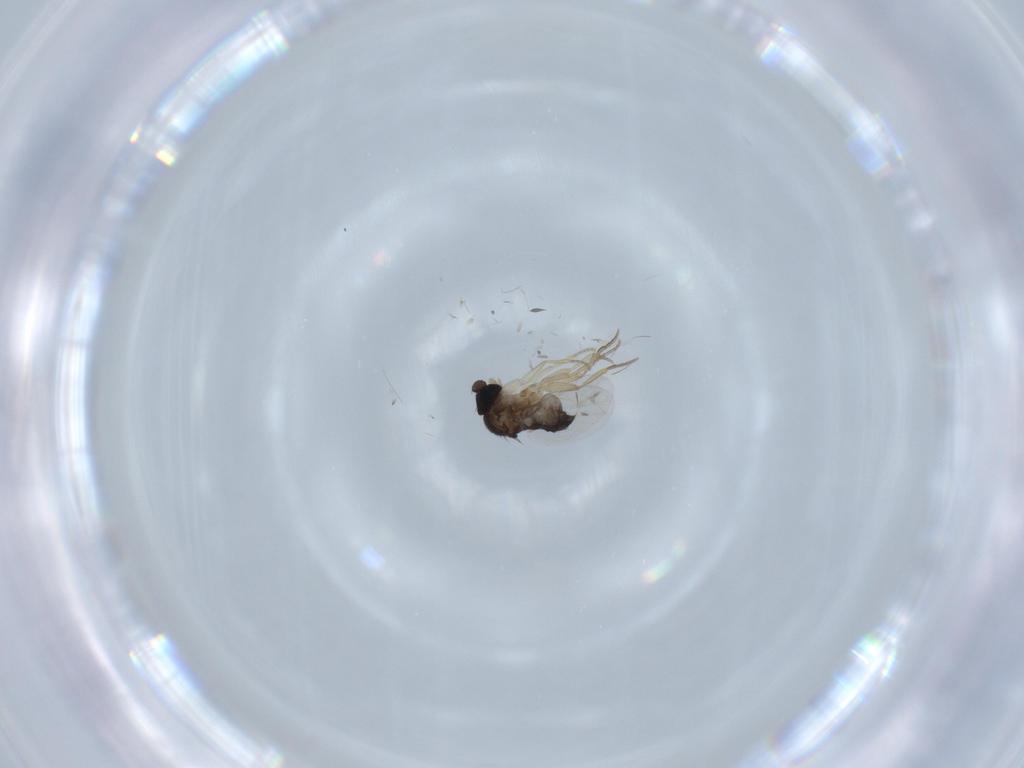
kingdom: Animalia
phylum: Arthropoda
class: Insecta
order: Diptera
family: Phoridae
